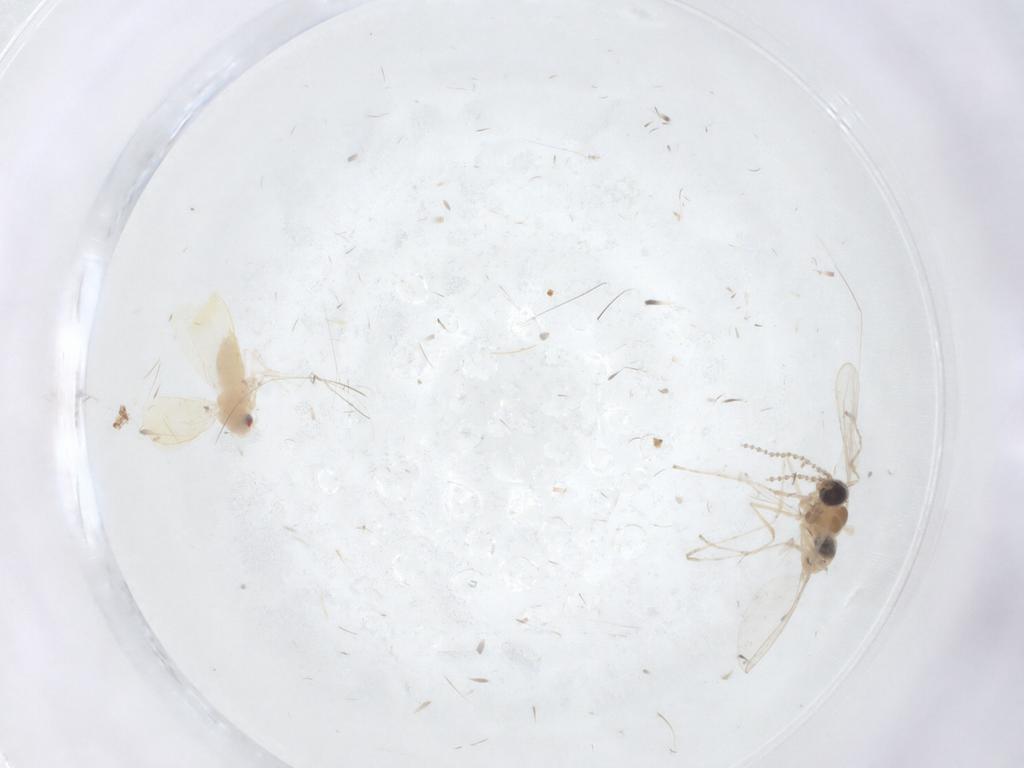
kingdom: Animalia
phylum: Arthropoda
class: Insecta
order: Diptera
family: Cecidomyiidae
